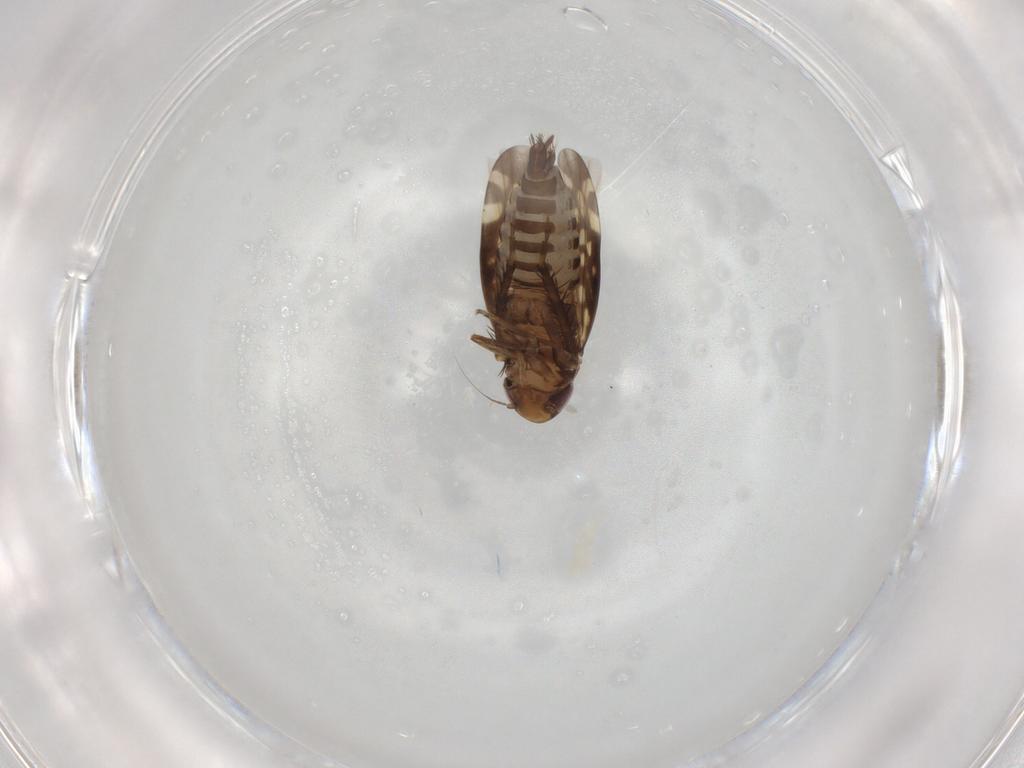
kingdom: Animalia
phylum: Arthropoda
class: Insecta
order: Hemiptera
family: Cicadellidae
